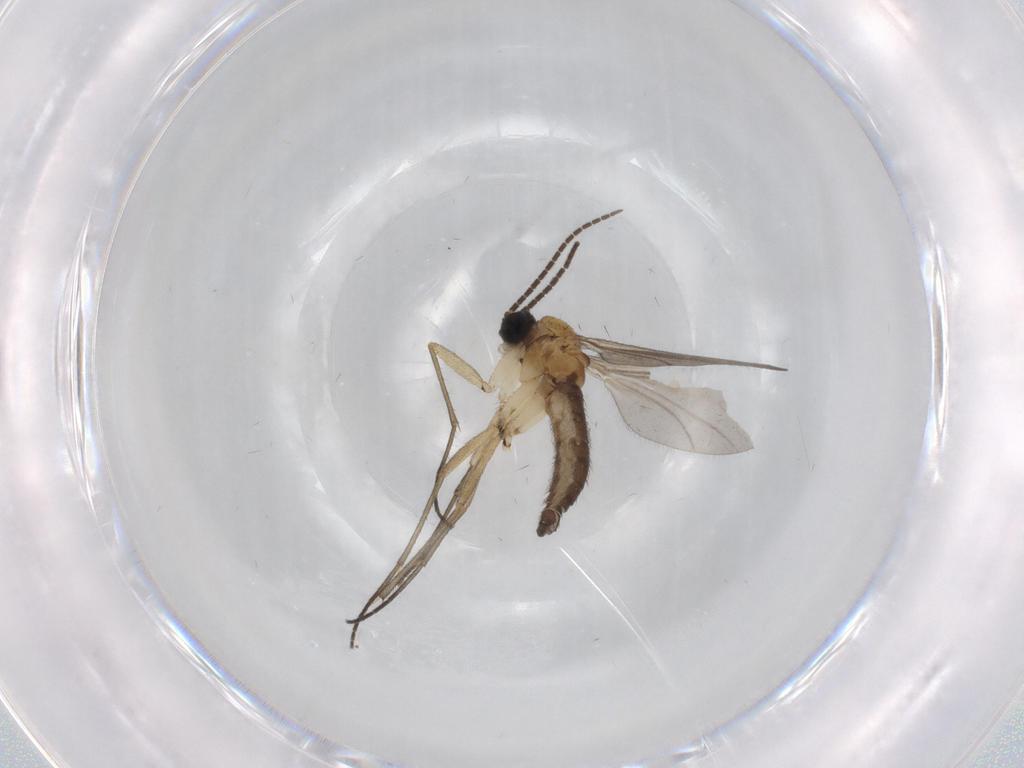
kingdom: Animalia
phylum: Arthropoda
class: Insecta
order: Diptera
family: Sciaridae
